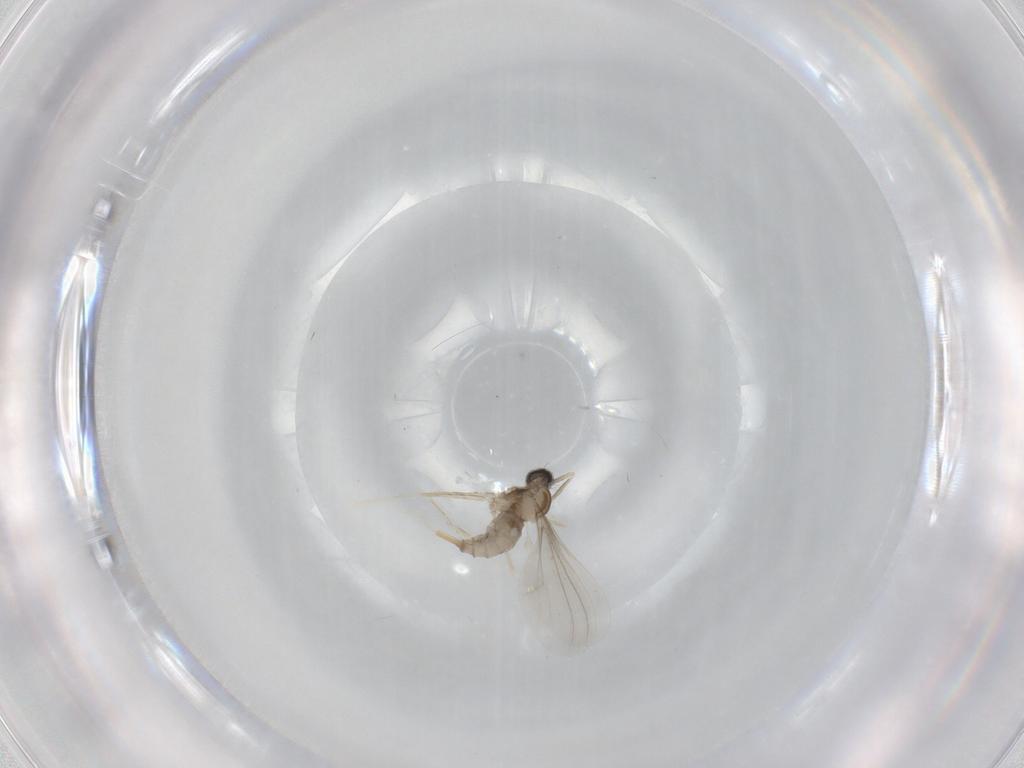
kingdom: Animalia
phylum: Arthropoda
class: Insecta
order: Diptera
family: Cecidomyiidae
